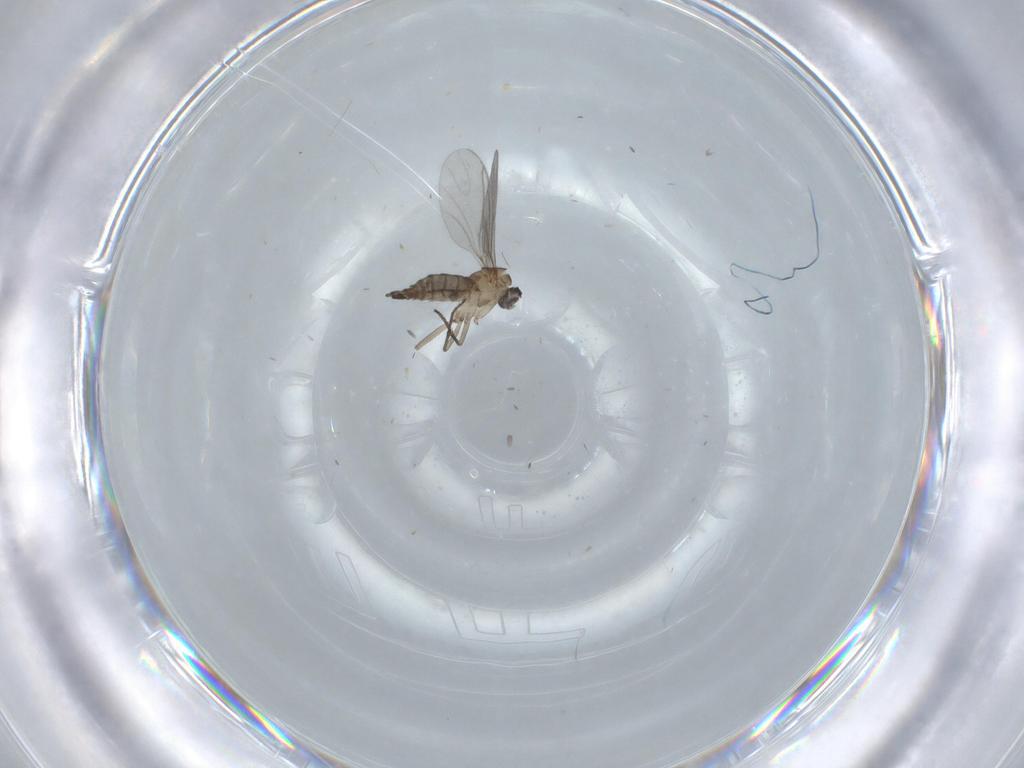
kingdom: Animalia
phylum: Arthropoda
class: Insecta
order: Diptera
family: Sciaridae
